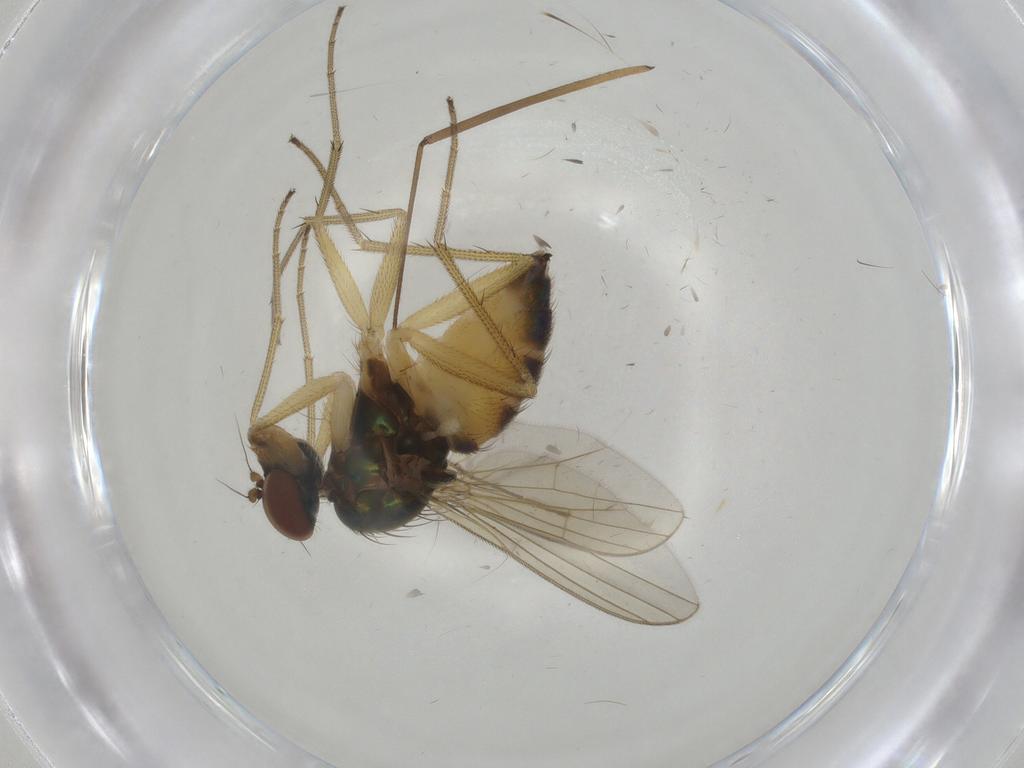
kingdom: Animalia
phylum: Arthropoda
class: Insecta
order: Diptera
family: Dolichopodidae
